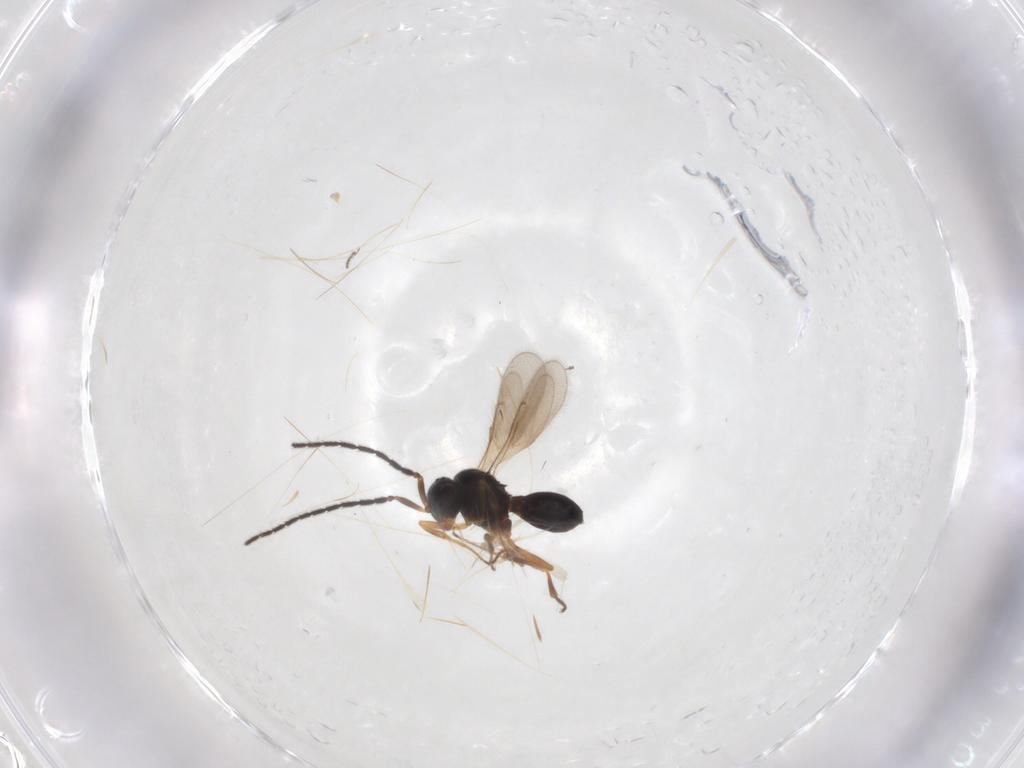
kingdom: Animalia
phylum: Arthropoda
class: Insecta
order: Hymenoptera
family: Scelionidae
